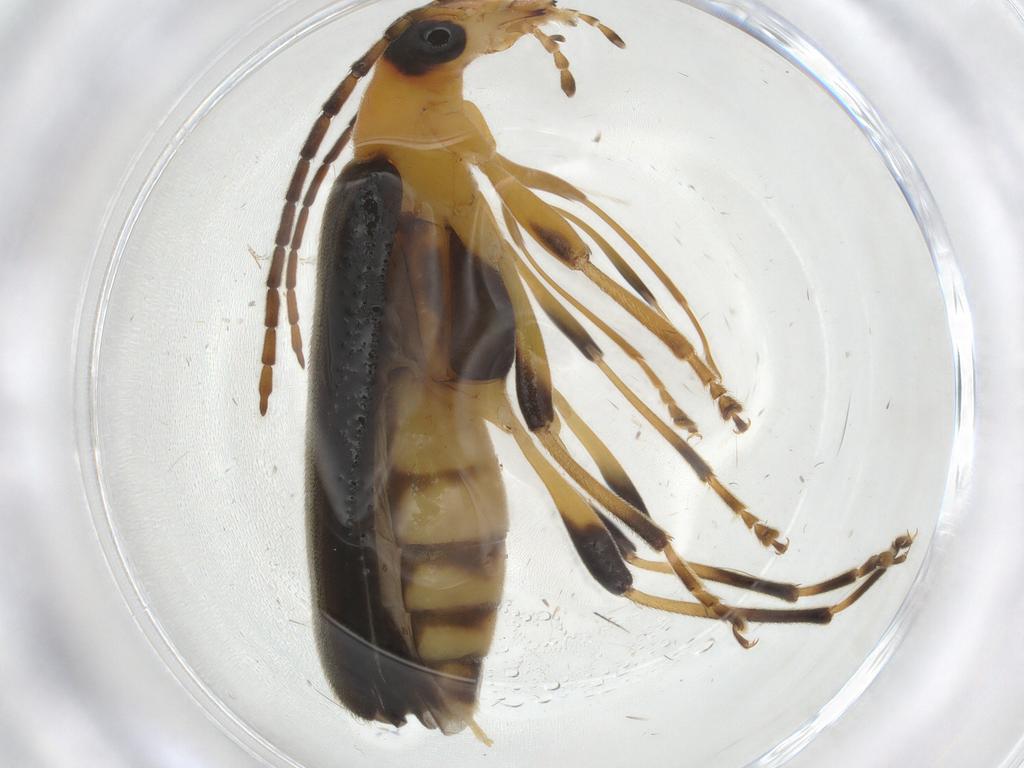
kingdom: Animalia
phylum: Arthropoda
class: Insecta
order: Coleoptera
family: Oedemeridae
